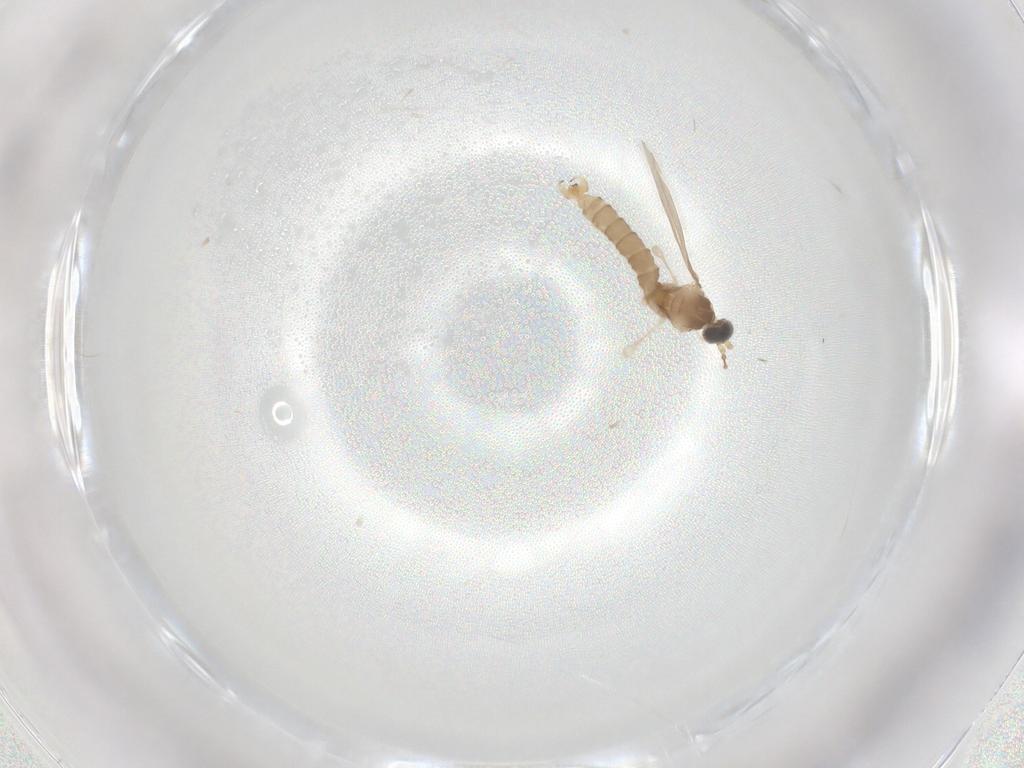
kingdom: Animalia
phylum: Arthropoda
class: Insecta
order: Diptera
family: Cecidomyiidae
